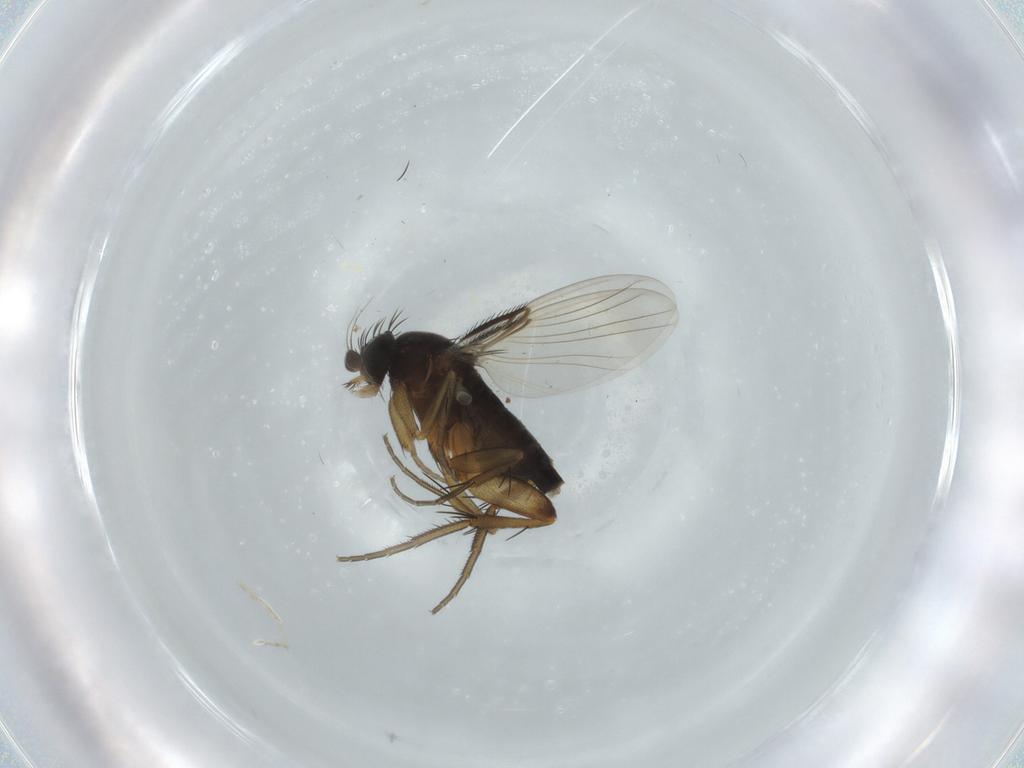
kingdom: Animalia
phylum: Arthropoda
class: Insecta
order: Diptera
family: Phoridae
